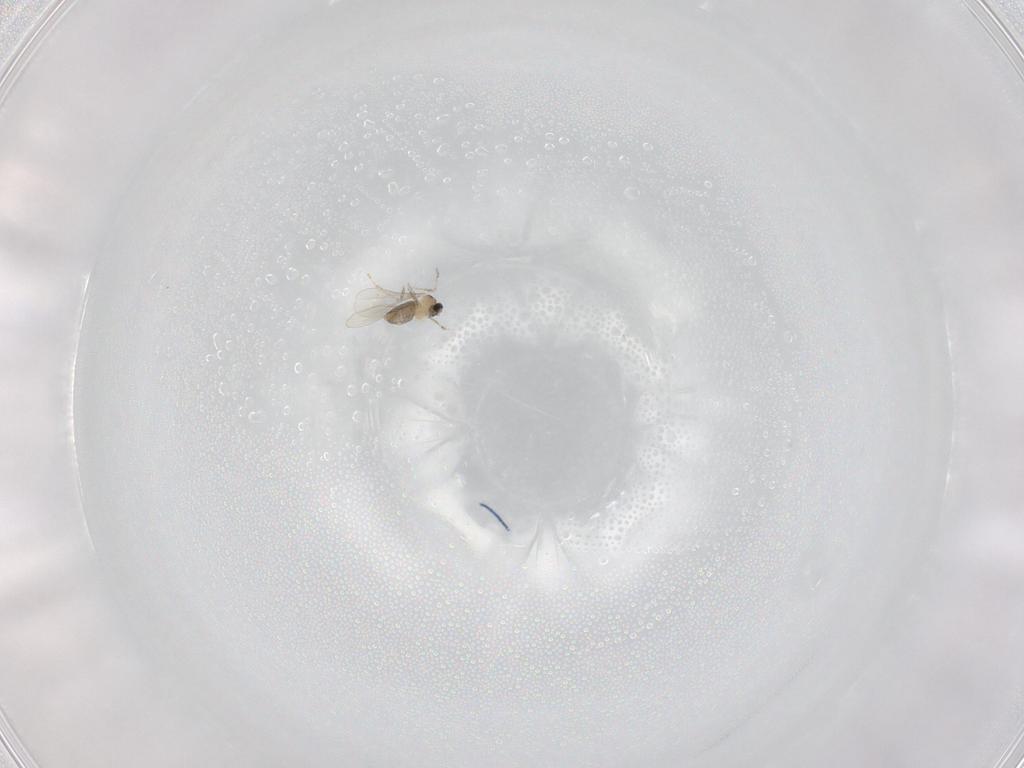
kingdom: Animalia
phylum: Arthropoda
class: Insecta
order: Diptera
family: Cecidomyiidae
